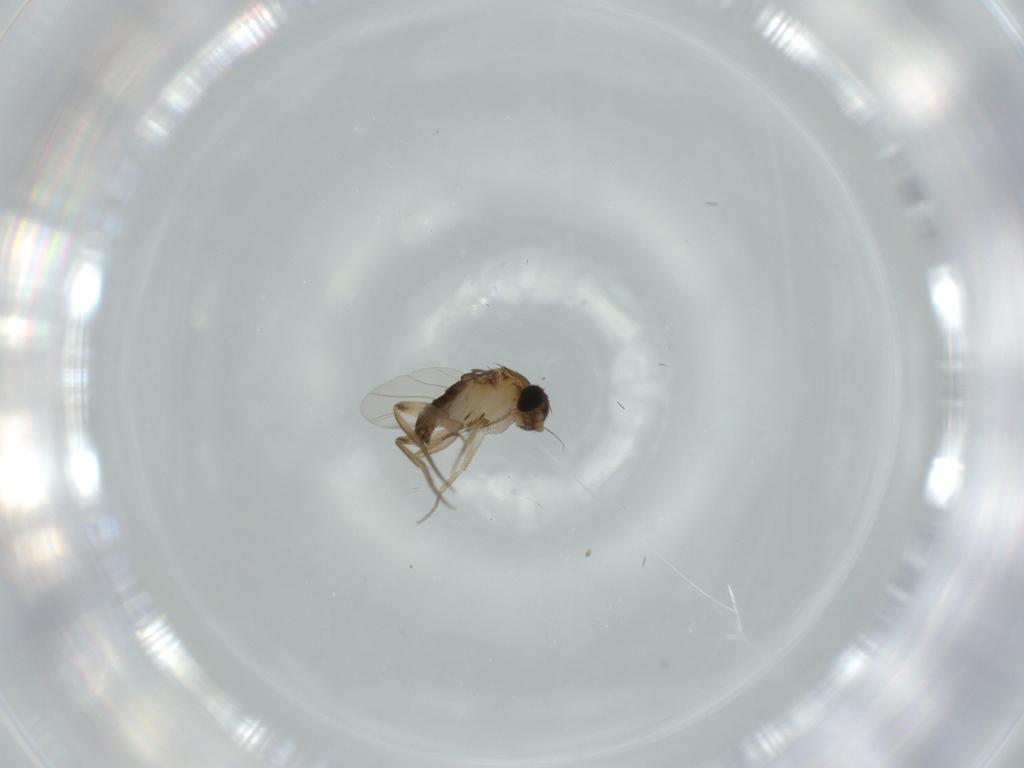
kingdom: Animalia
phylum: Arthropoda
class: Insecta
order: Diptera
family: Phoridae
